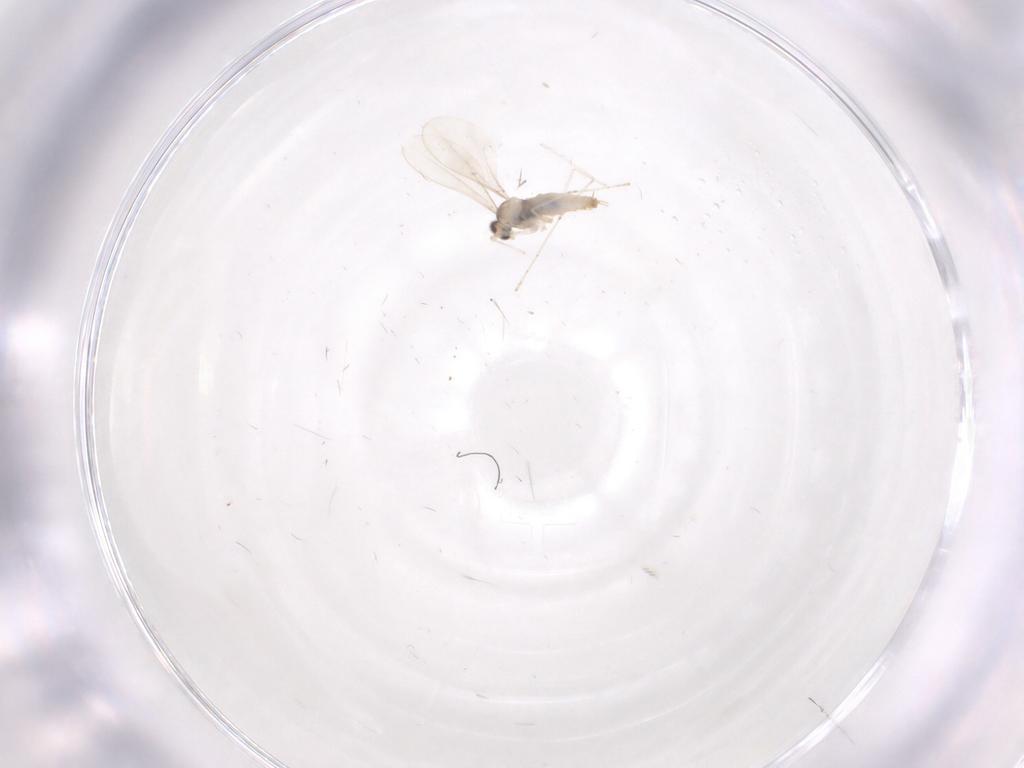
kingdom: Animalia
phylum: Arthropoda
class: Insecta
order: Diptera
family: Cecidomyiidae
